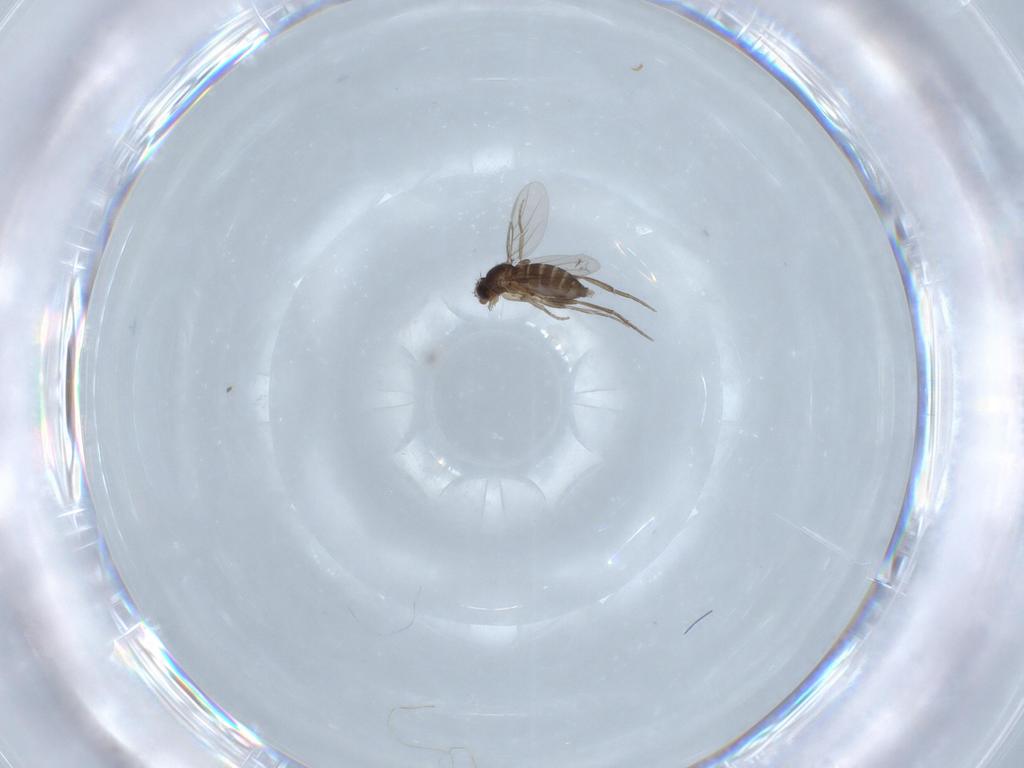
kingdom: Animalia
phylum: Arthropoda
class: Insecta
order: Diptera
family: Phoridae
